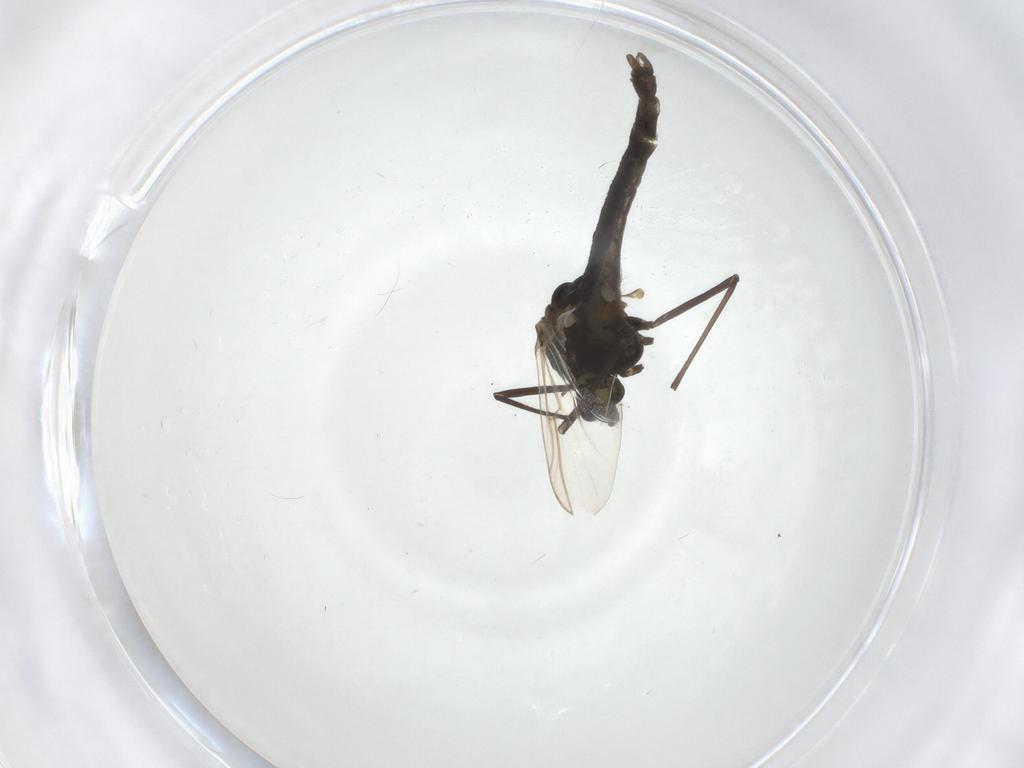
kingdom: Animalia
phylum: Arthropoda
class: Insecta
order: Diptera
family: Chironomidae
